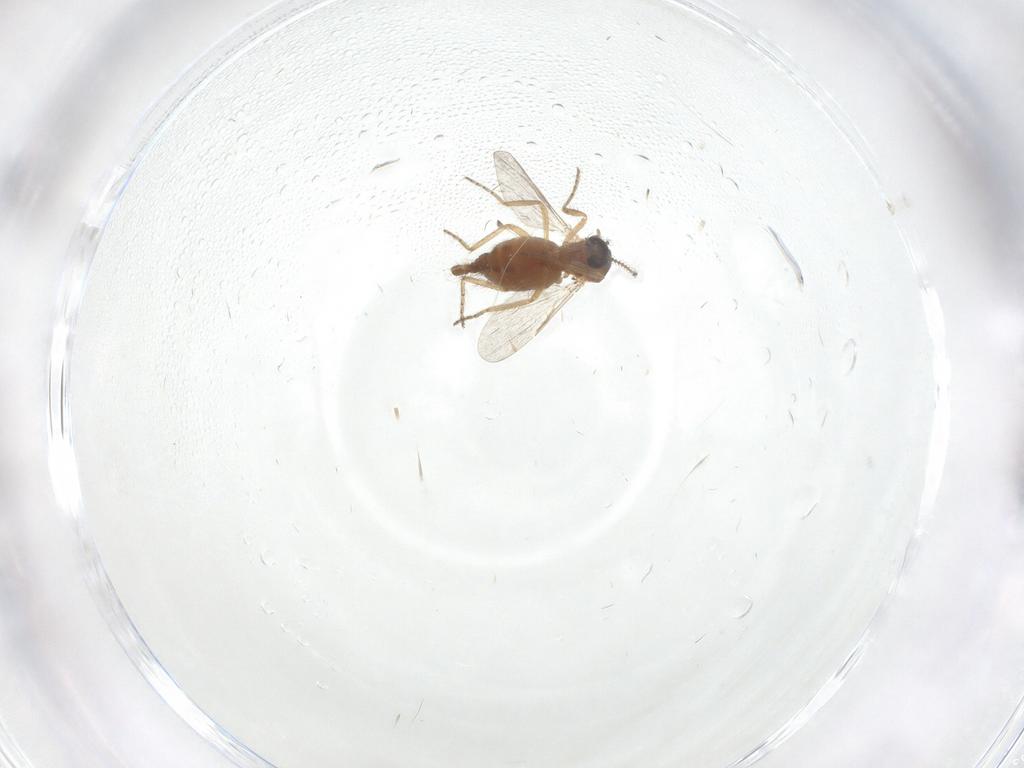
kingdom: Animalia
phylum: Arthropoda
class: Insecta
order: Diptera
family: Ceratopogonidae
